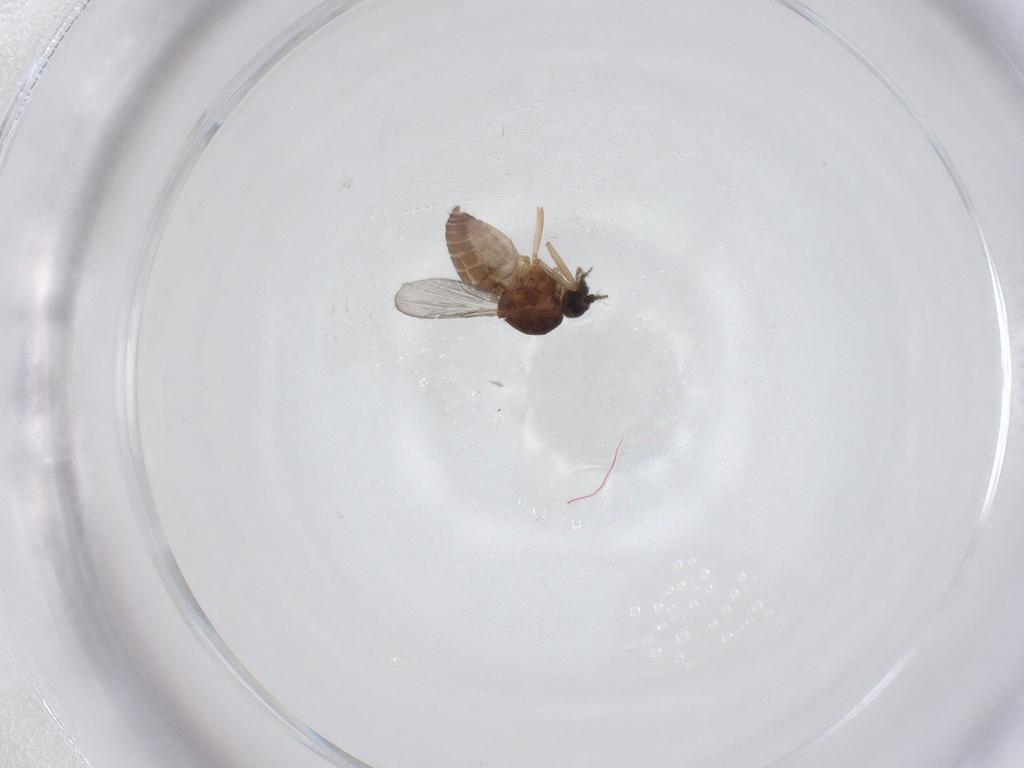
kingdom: Animalia
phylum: Arthropoda
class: Insecta
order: Diptera
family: Ceratopogonidae
